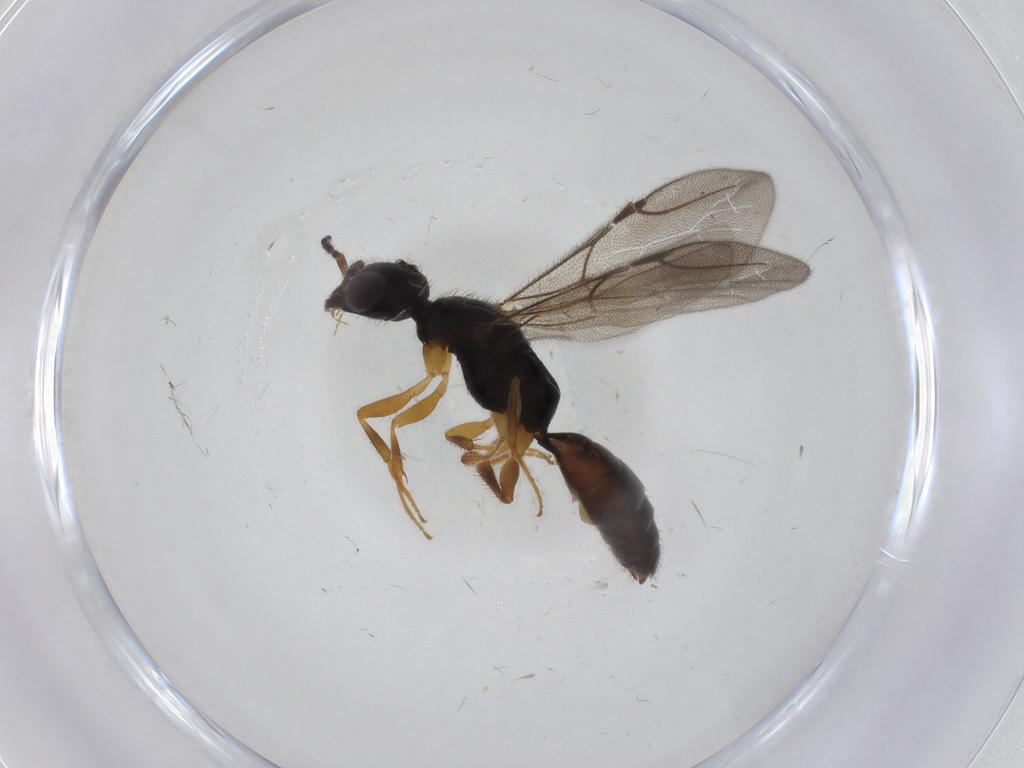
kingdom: Animalia
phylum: Arthropoda
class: Insecta
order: Hymenoptera
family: Bethylidae
